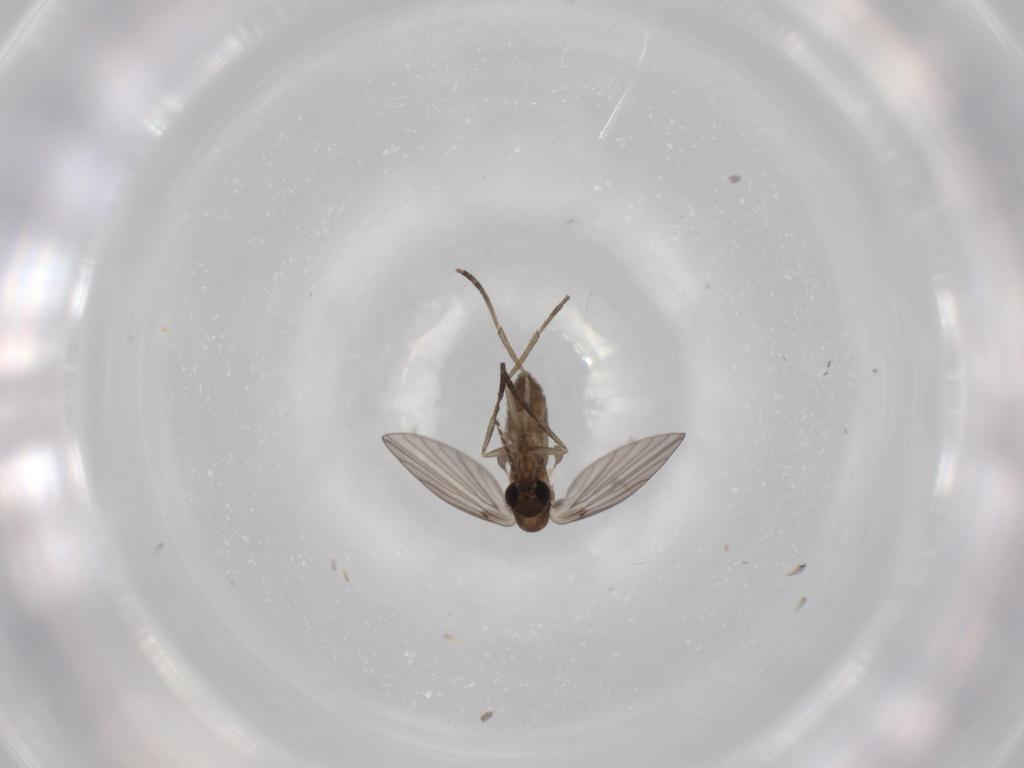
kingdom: Animalia
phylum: Arthropoda
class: Insecta
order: Diptera
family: Psychodidae
